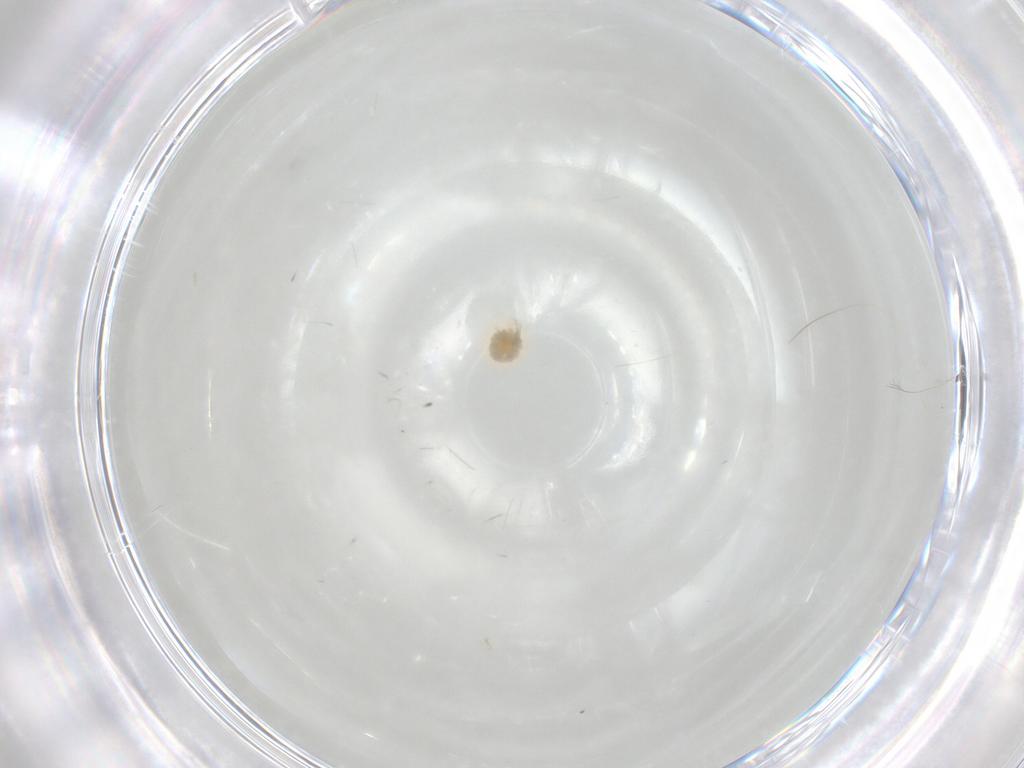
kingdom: Animalia
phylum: Arthropoda
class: Arachnida
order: Trombidiformes
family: Tetranychidae
